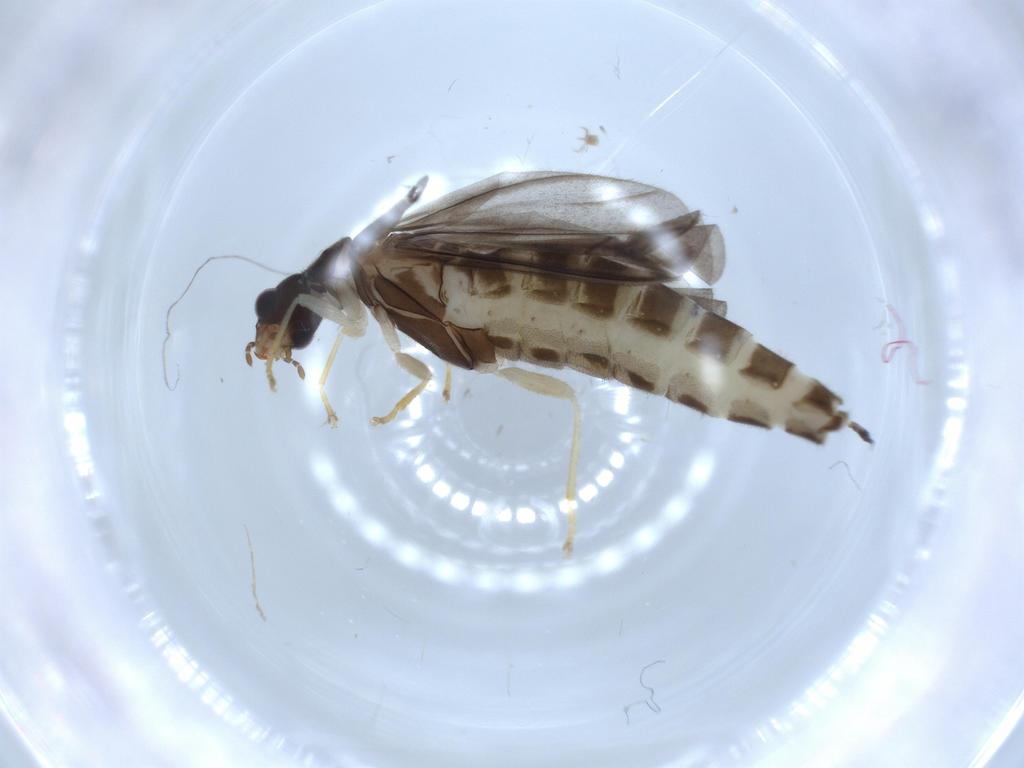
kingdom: Animalia
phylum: Arthropoda
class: Insecta
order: Coleoptera
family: Cantharidae
